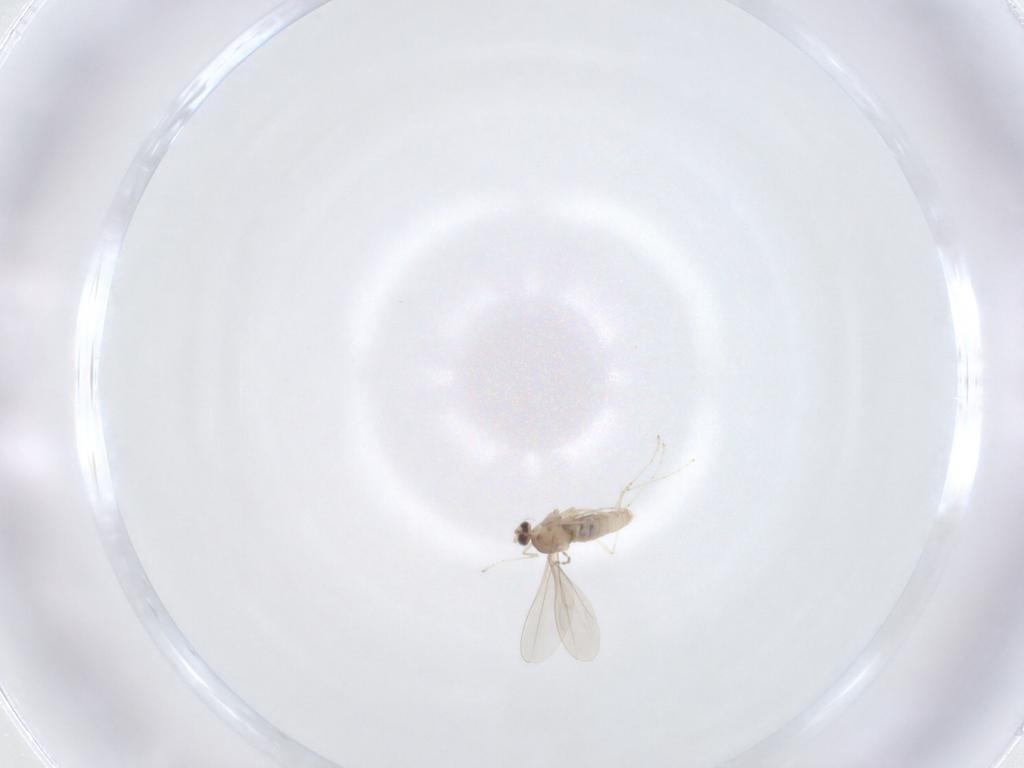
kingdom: Animalia
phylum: Arthropoda
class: Insecta
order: Diptera
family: Cecidomyiidae
